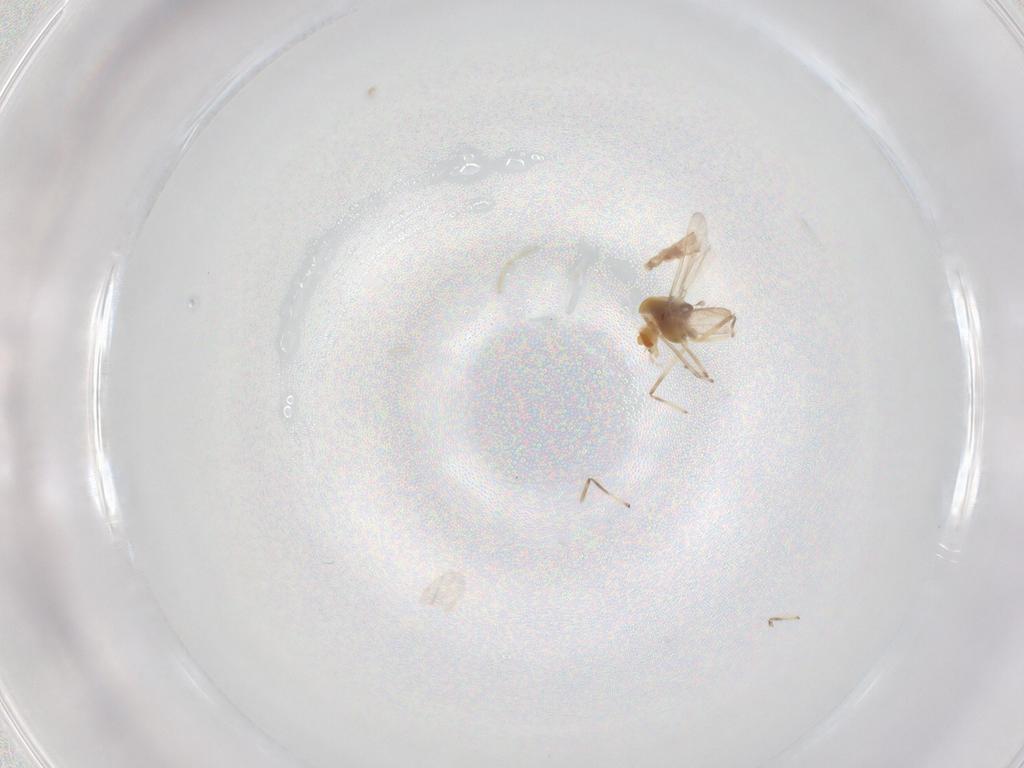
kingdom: Animalia
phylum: Arthropoda
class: Insecta
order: Diptera
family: Chironomidae
